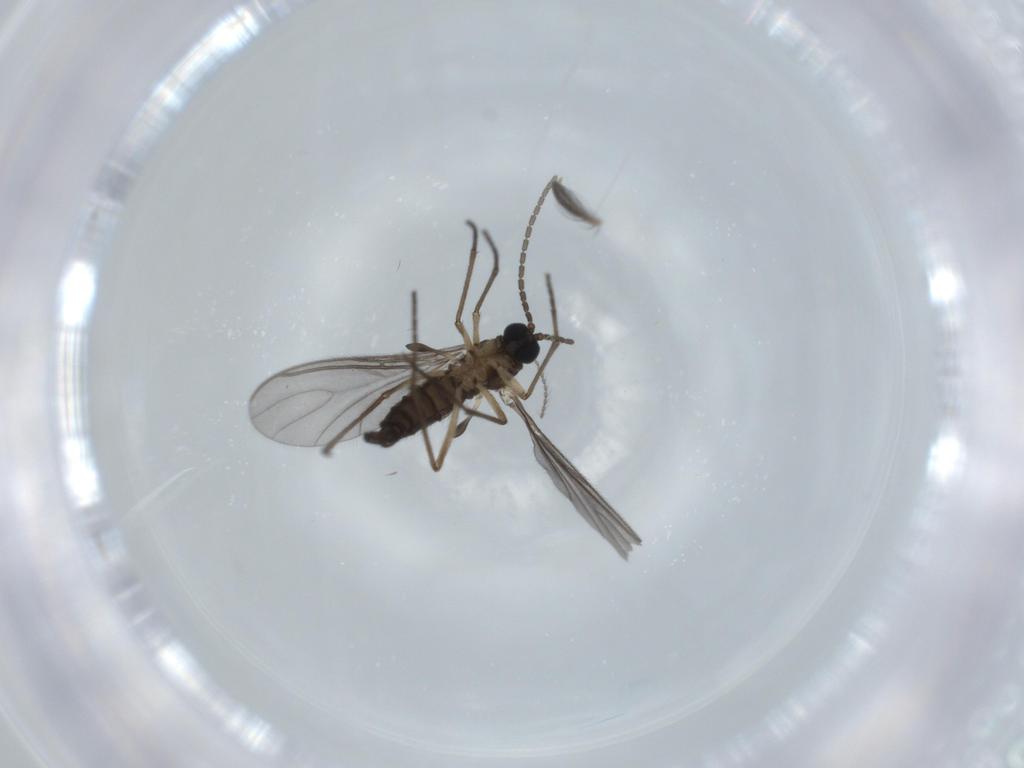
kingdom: Animalia
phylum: Arthropoda
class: Insecta
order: Diptera
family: Cecidomyiidae
